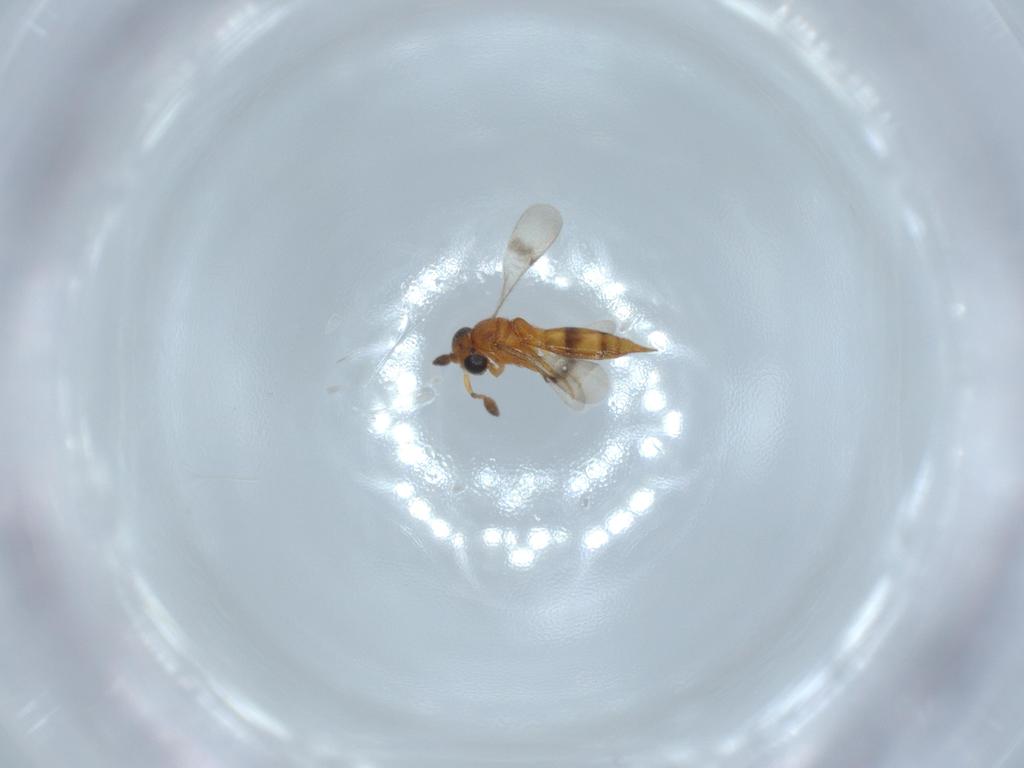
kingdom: Animalia
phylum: Arthropoda
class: Insecta
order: Hymenoptera
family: Scelionidae
